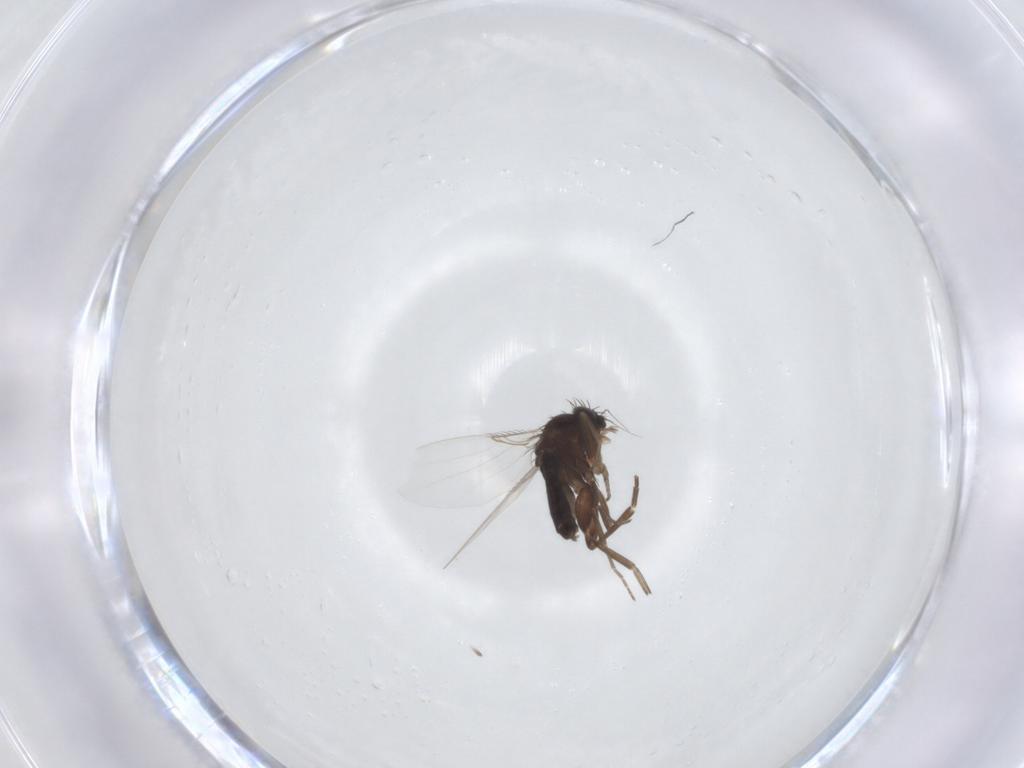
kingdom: Animalia
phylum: Arthropoda
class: Insecta
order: Diptera
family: Phoridae
